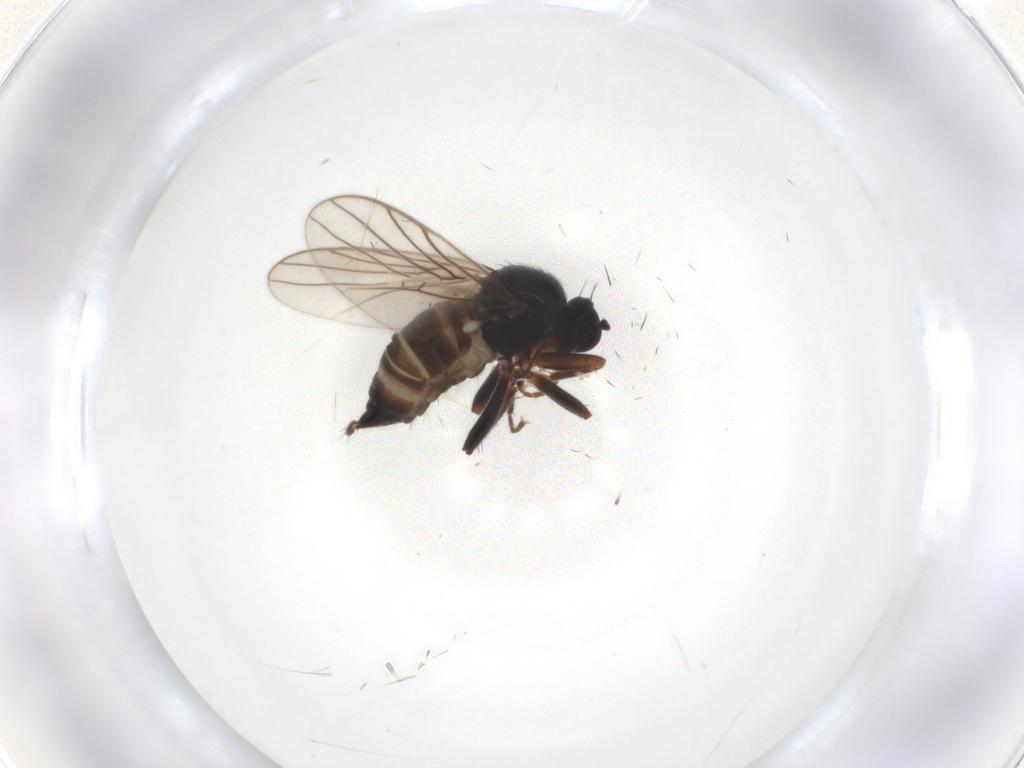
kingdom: Animalia
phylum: Arthropoda
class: Insecta
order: Diptera
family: Cecidomyiidae
